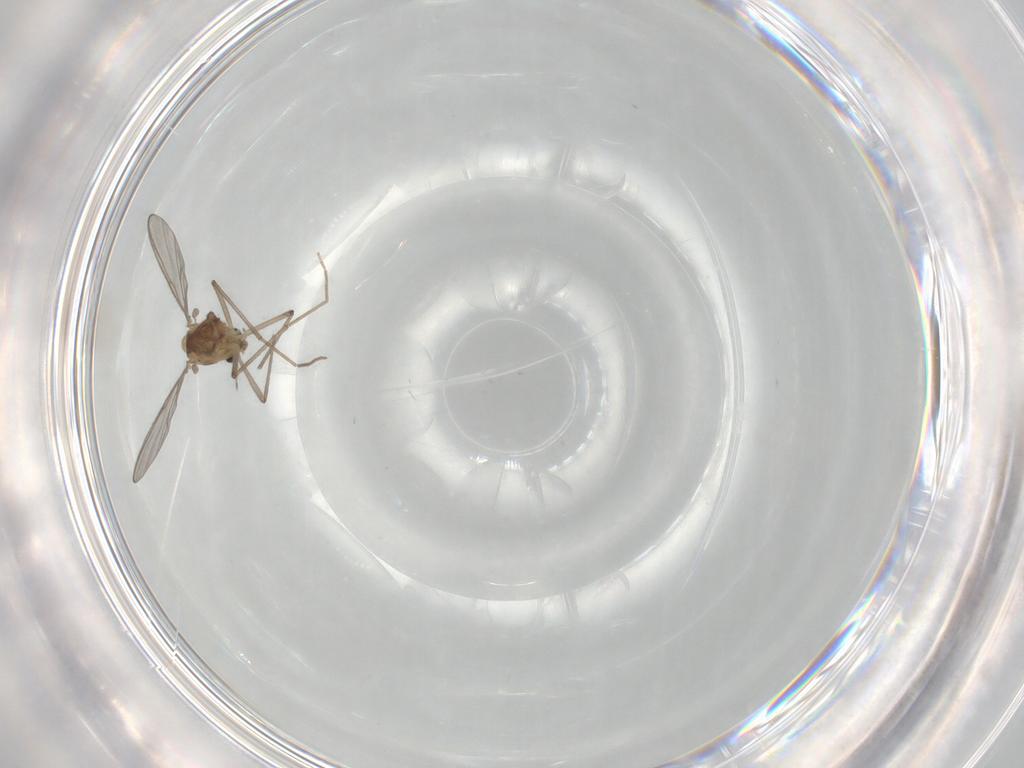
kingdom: Animalia
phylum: Arthropoda
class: Insecta
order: Diptera
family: Chironomidae
